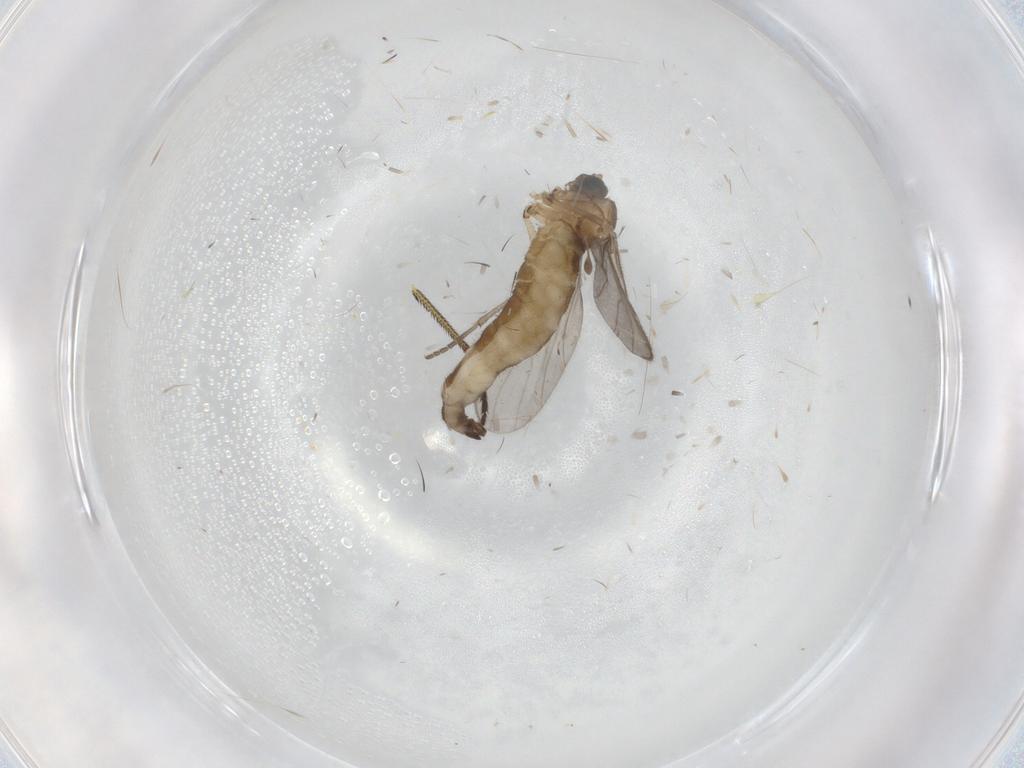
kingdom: Animalia
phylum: Arthropoda
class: Insecta
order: Diptera
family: Dolichopodidae
